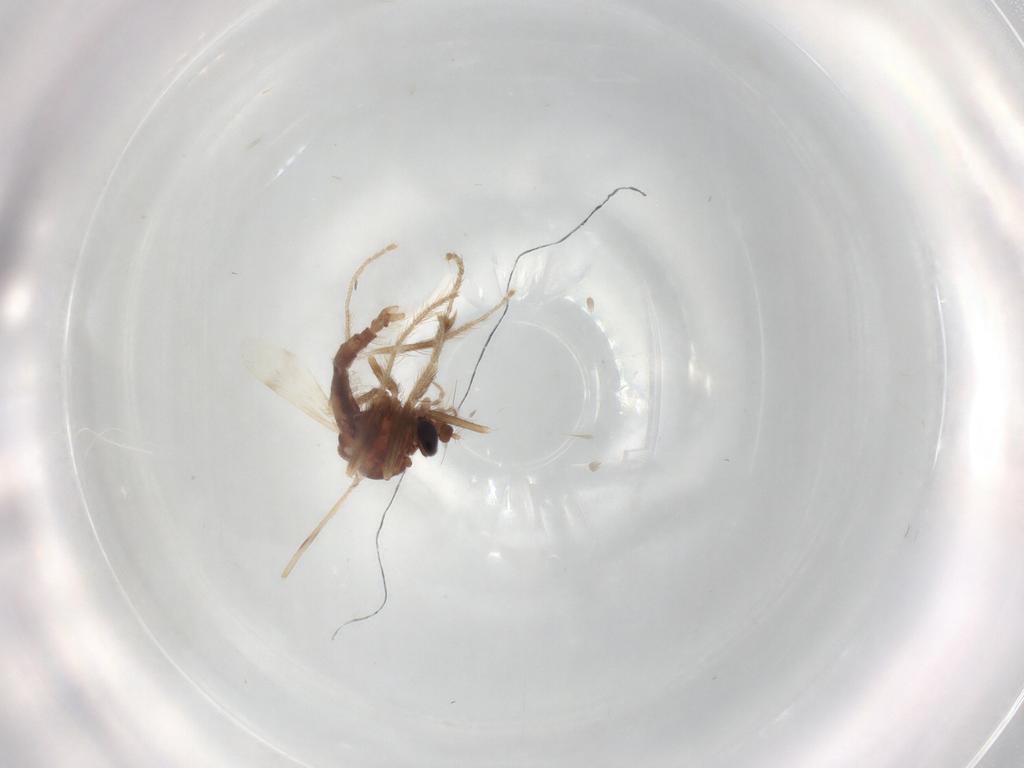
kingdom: Animalia
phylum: Arthropoda
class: Insecta
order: Diptera
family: Corethrellidae
